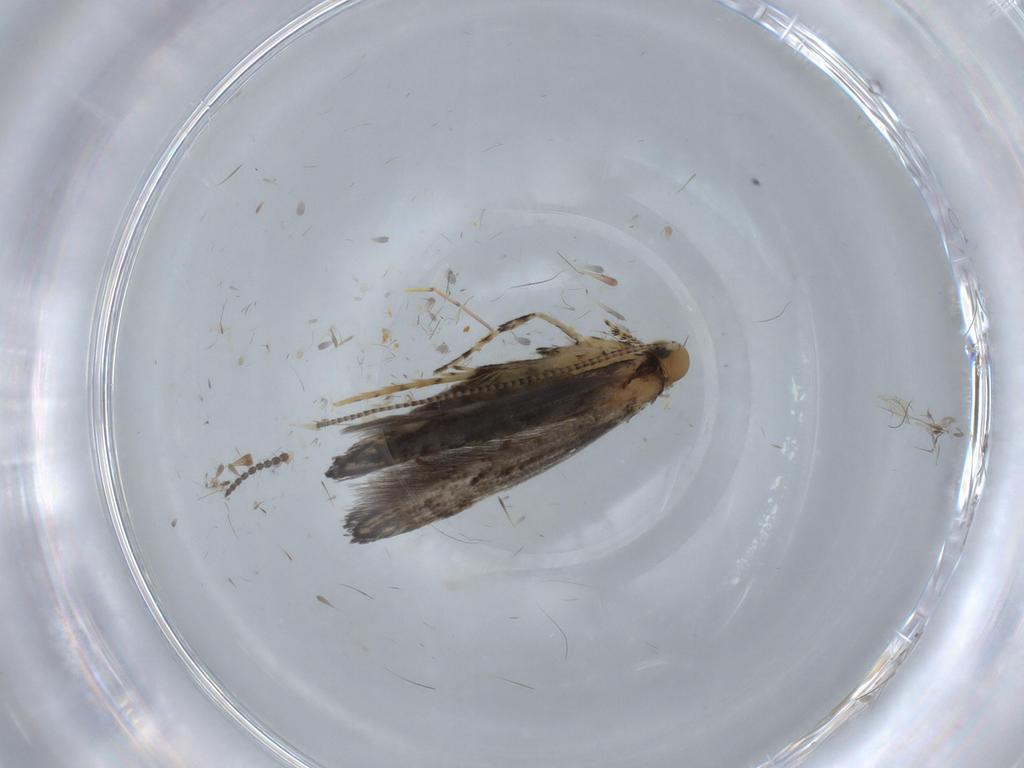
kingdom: Animalia
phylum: Arthropoda
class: Insecta
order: Lepidoptera
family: Gracillariidae
